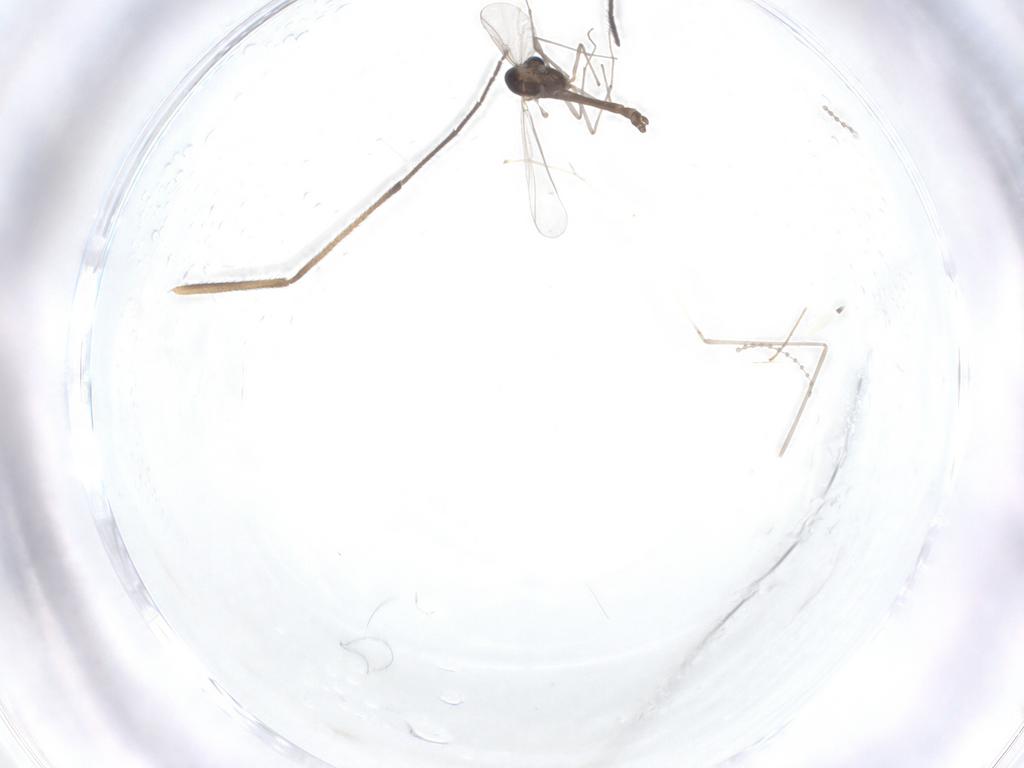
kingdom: Animalia
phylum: Arthropoda
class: Insecta
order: Diptera
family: Chironomidae
